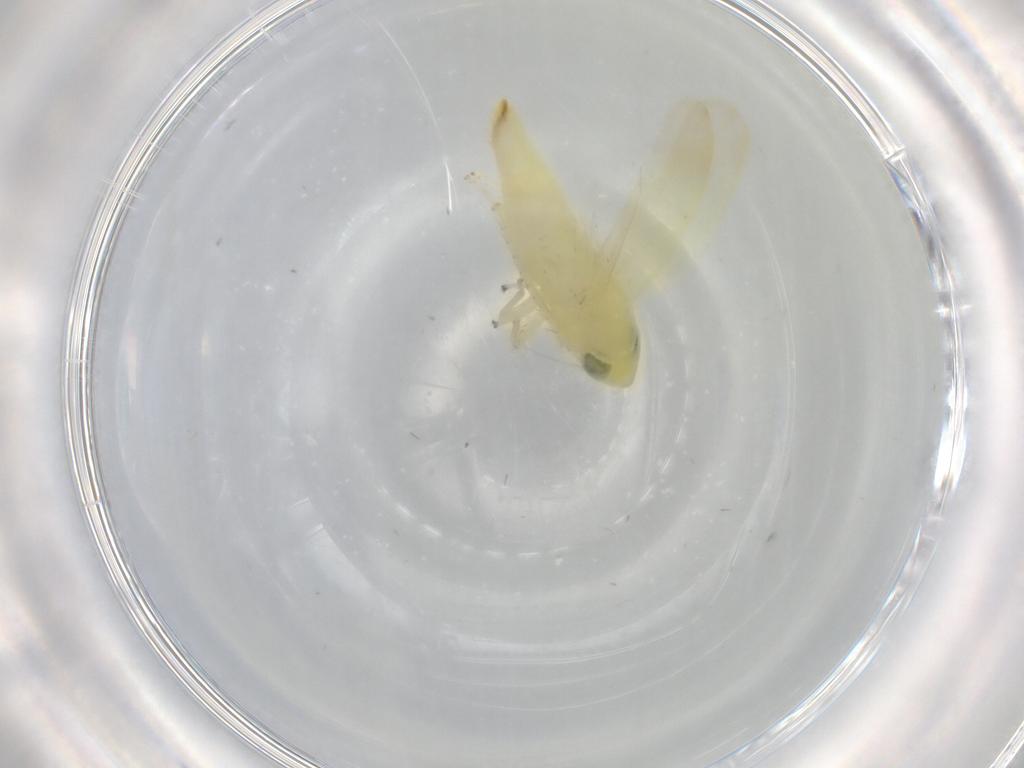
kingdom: Animalia
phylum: Arthropoda
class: Insecta
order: Hemiptera
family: Cicadellidae
